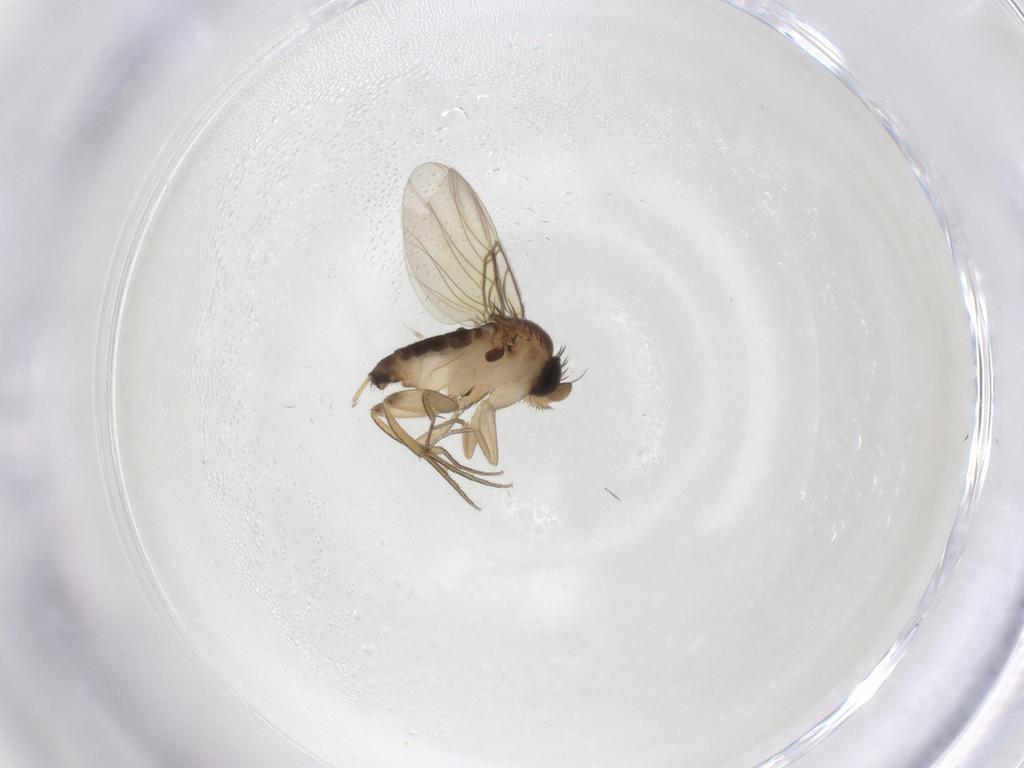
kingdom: Animalia
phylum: Arthropoda
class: Insecta
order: Diptera
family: Phoridae
